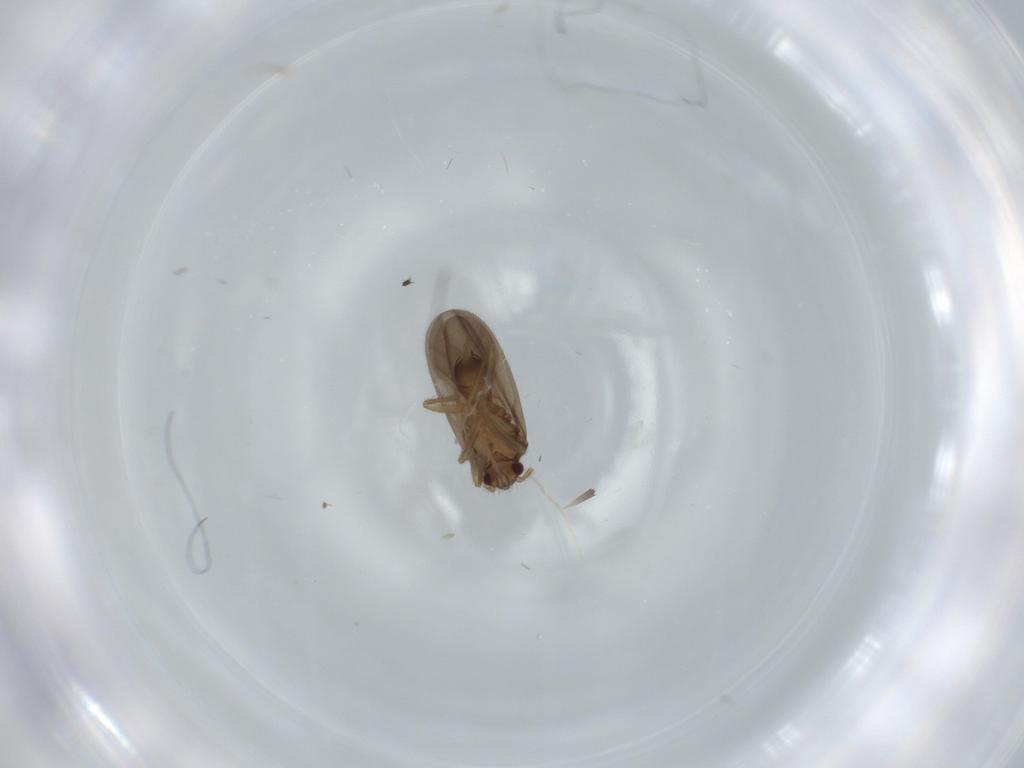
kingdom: Animalia
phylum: Arthropoda
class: Insecta
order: Hemiptera
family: Ceratocombidae
